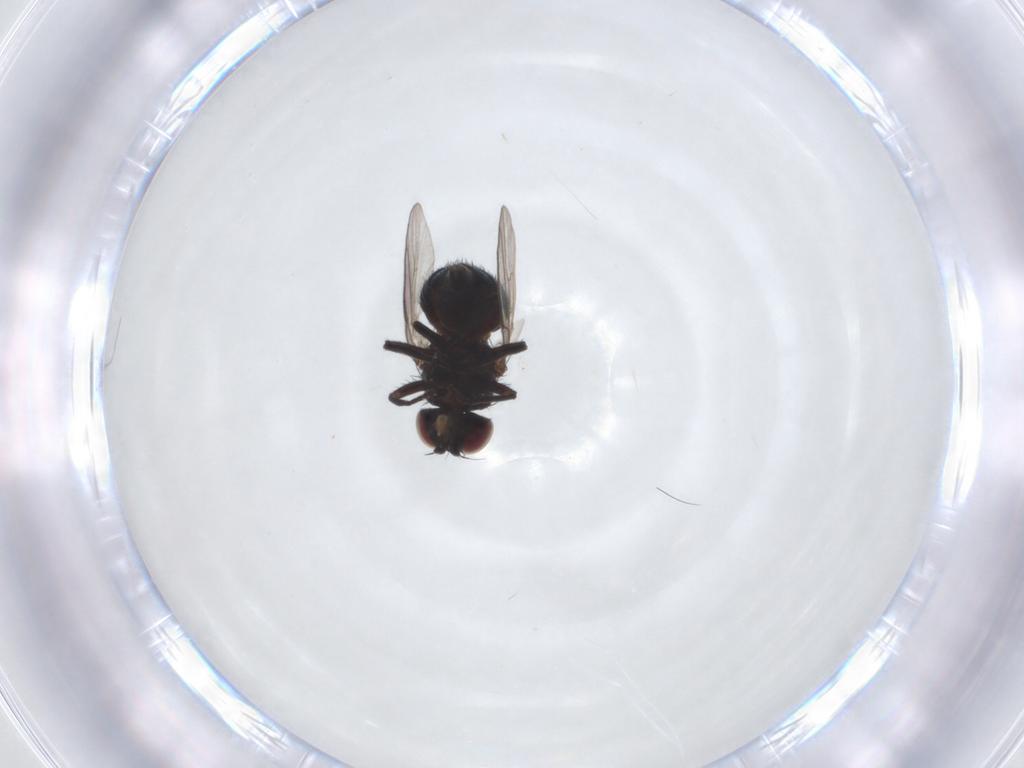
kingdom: Animalia
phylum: Arthropoda
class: Insecta
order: Diptera
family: Agromyzidae
